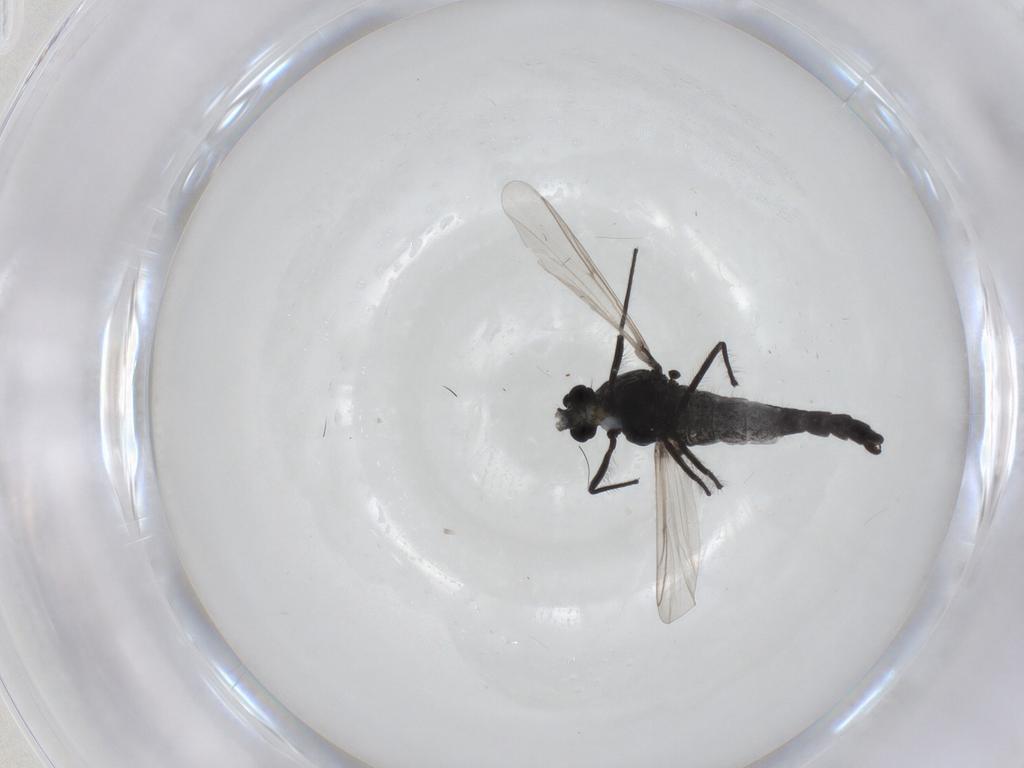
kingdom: Animalia
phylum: Arthropoda
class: Insecta
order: Diptera
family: Chironomidae
